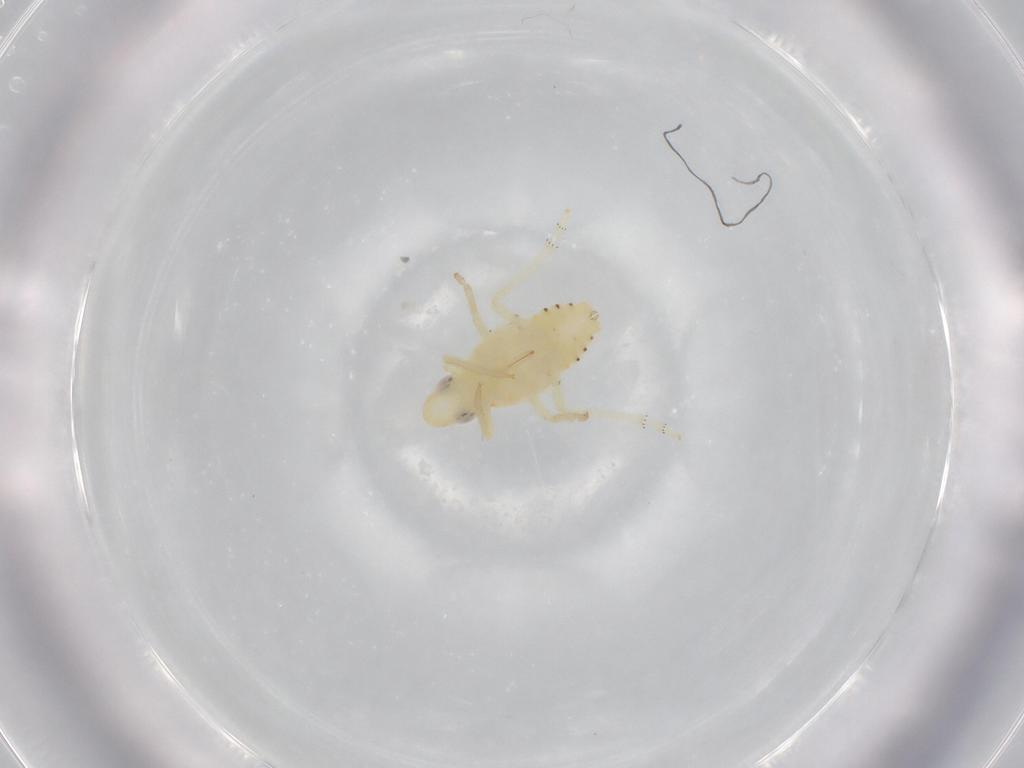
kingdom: Animalia
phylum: Arthropoda
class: Insecta
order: Hemiptera
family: Tropiduchidae
